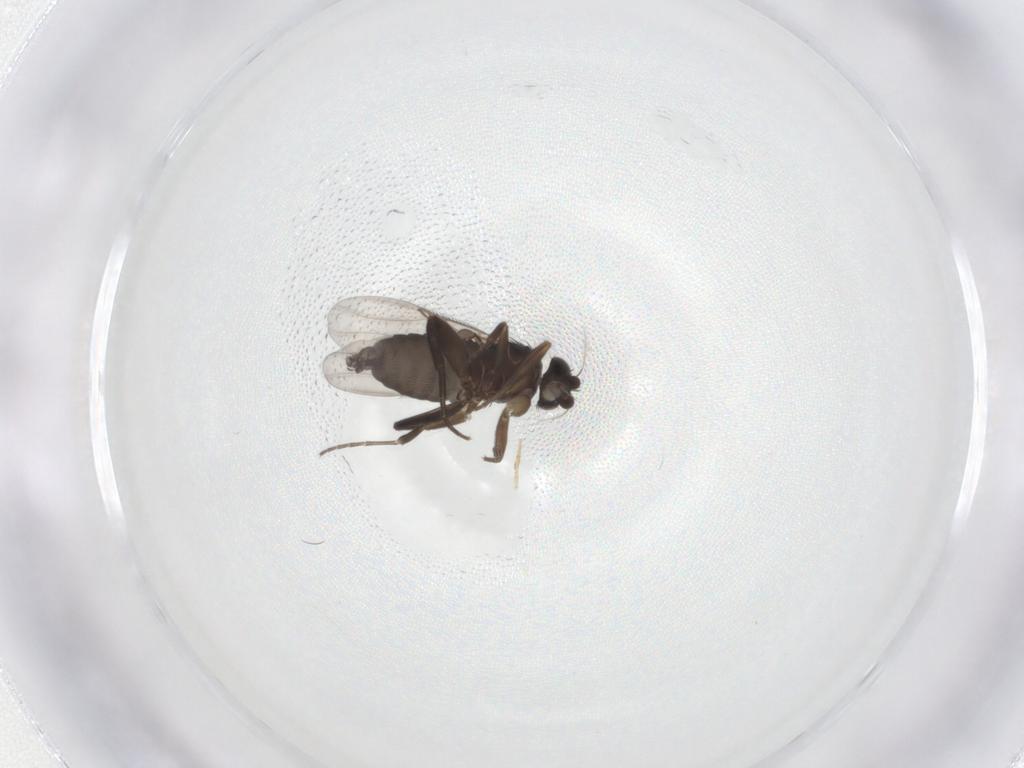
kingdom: Animalia
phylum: Arthropoda
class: Insecta
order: Diptera
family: Phoridae
